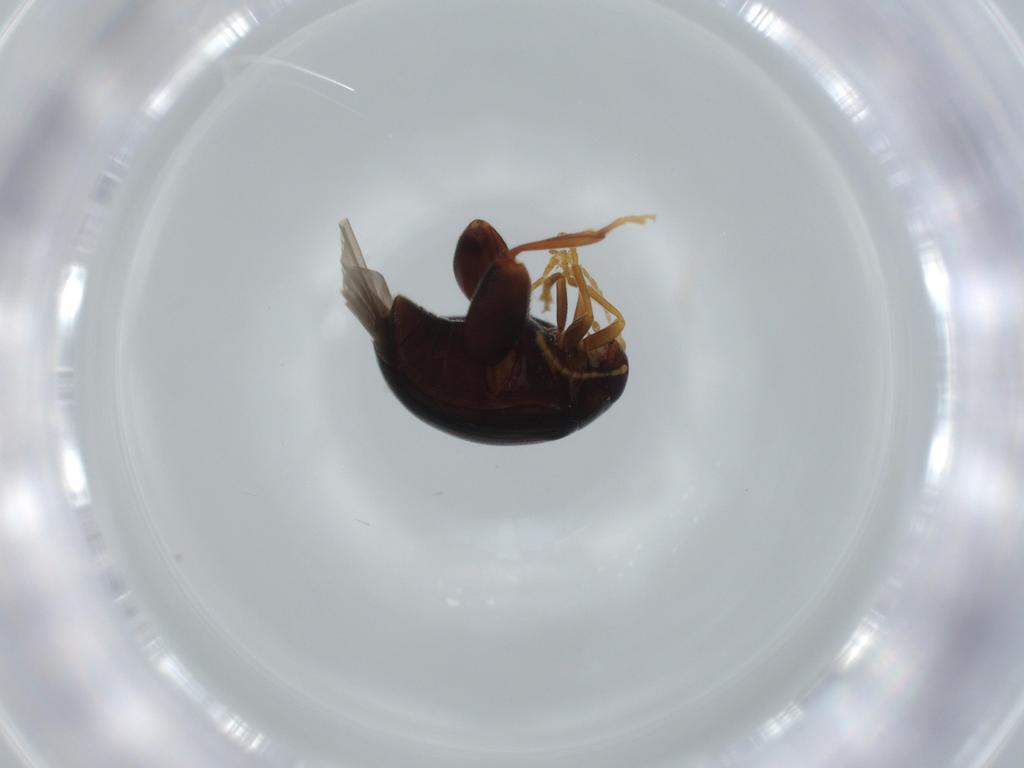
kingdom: Animalia
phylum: Arthropoda
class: Insecta
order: Coleoptera
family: Chrysomelidae
